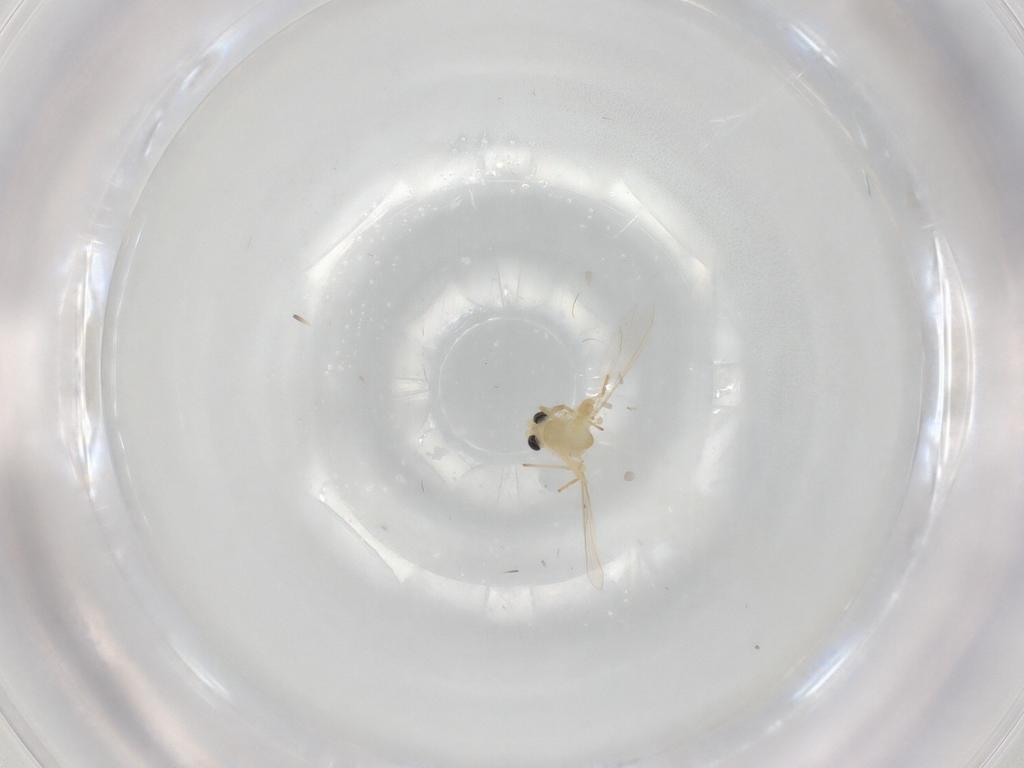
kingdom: Animalia
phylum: Arthropoda
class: Insecta
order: Diptera
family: Chironomidae
